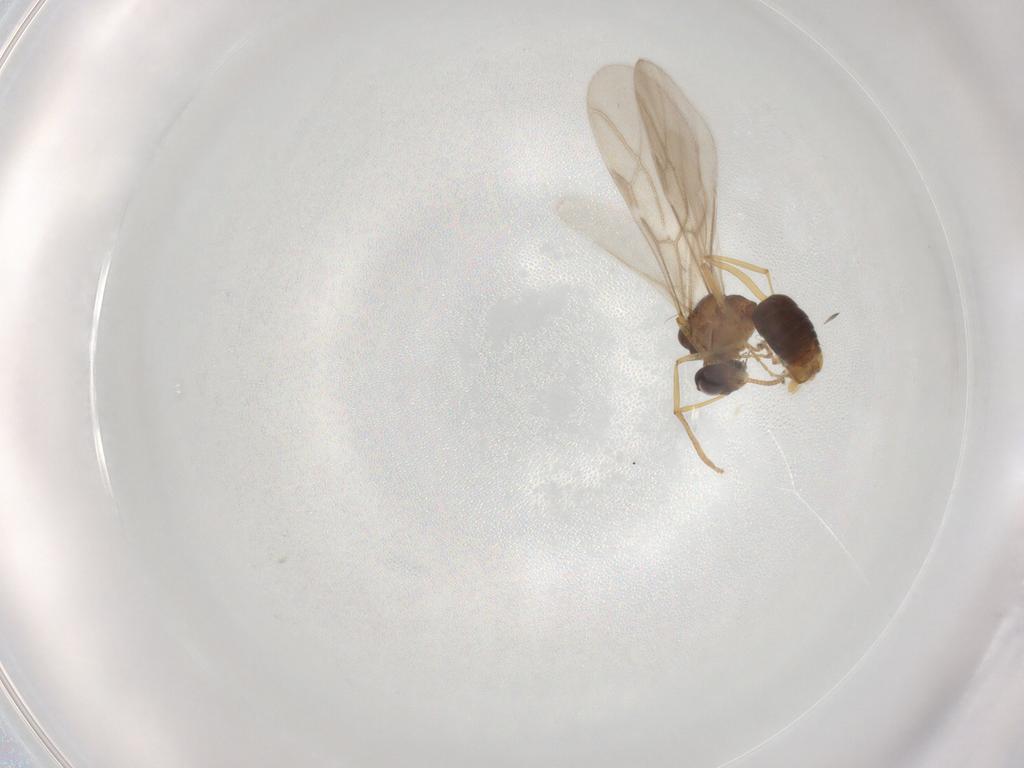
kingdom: Animalia
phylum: Arthropoda
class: Insecta
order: Hymenoptera
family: Formicidae
